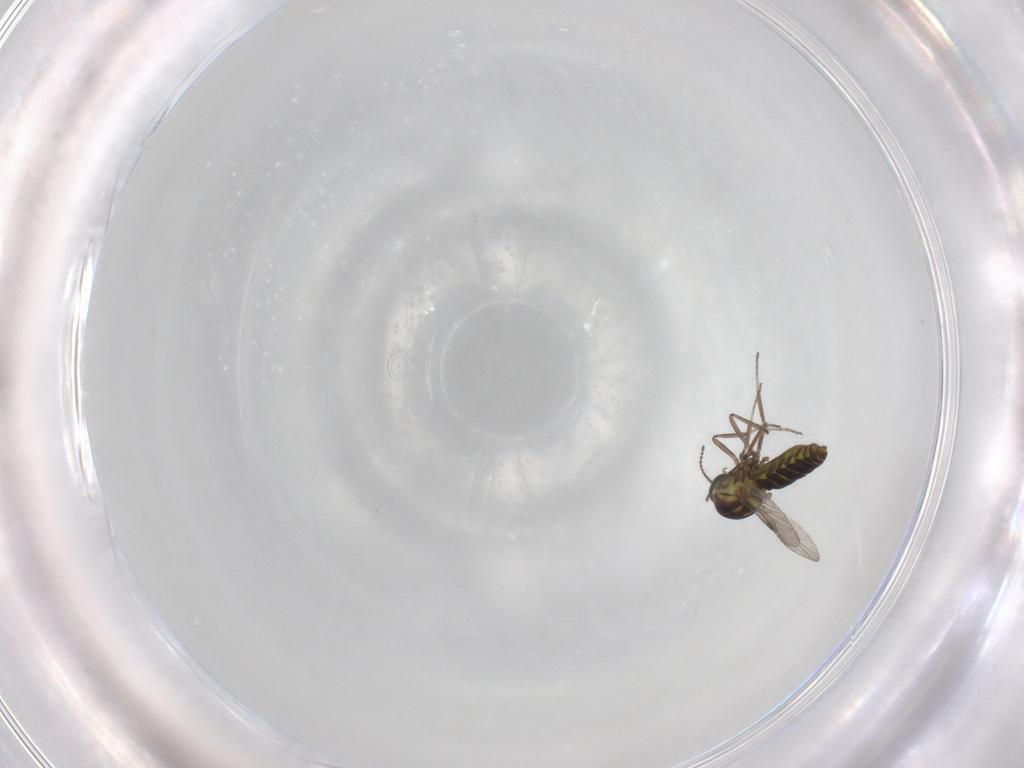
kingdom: Animalia
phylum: Arthropoda
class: Insecta
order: Diptera
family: Ceratopogonidae
